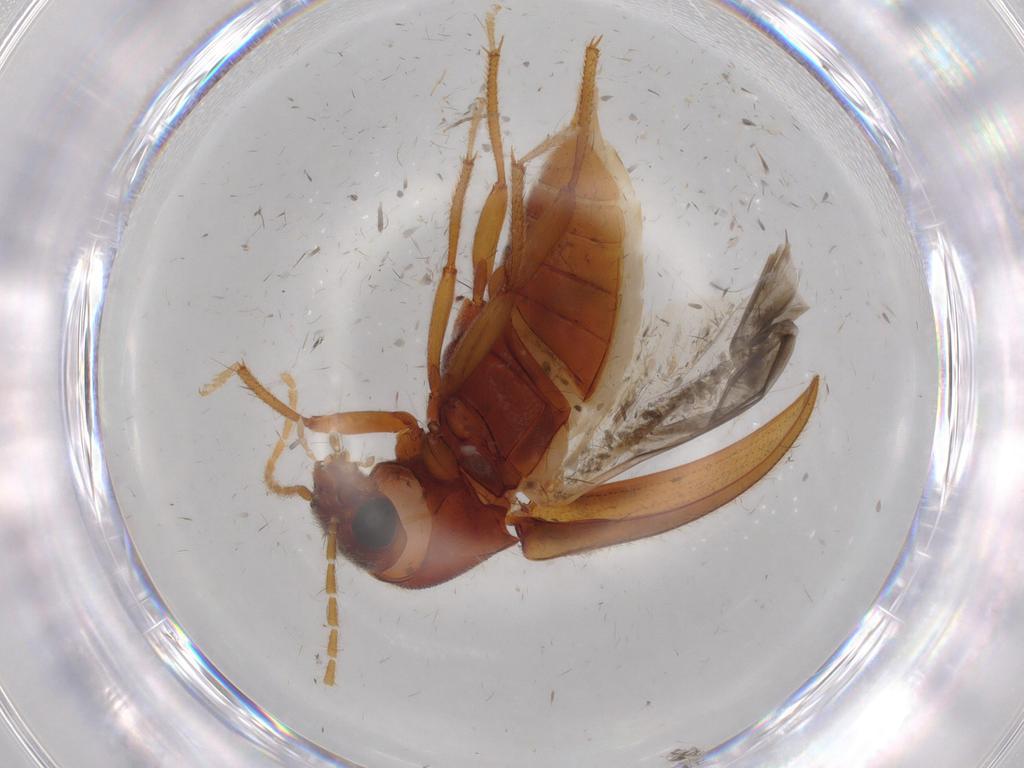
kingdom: Animalia
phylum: Arthropoda
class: Insecta
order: Coleoptera
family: Ptilodactylidae
